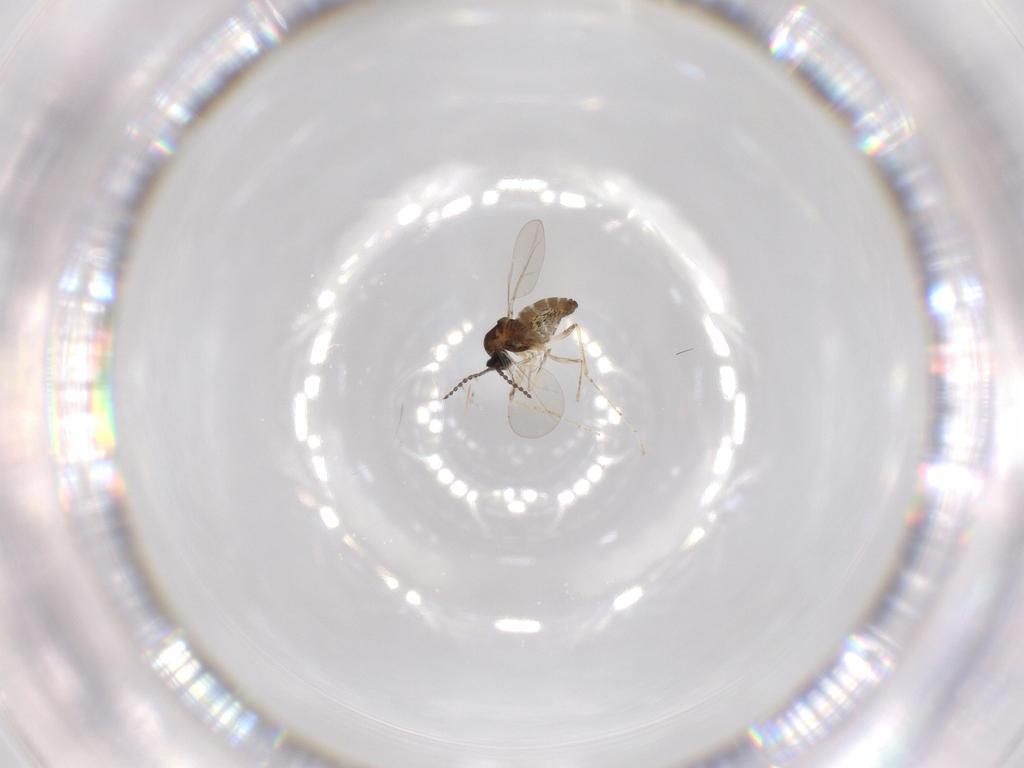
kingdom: Animalia
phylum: Arthropoda
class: Insecta
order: Diptera
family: Cecidomyiidae
